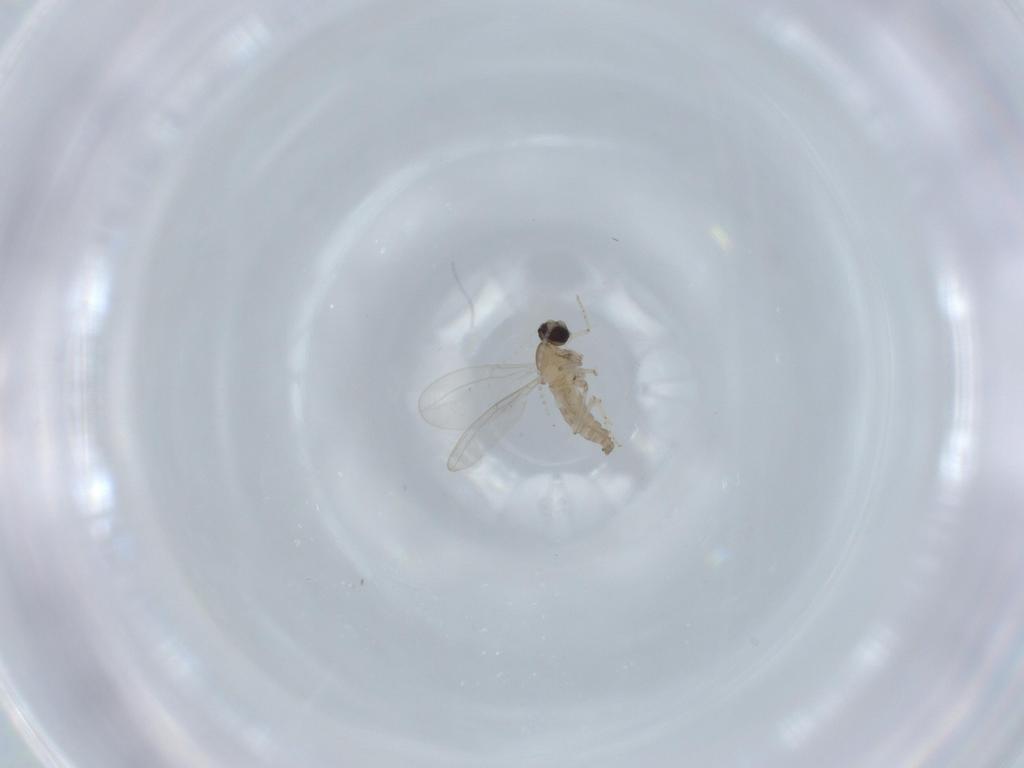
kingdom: Animalia
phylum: Arthropoda
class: Insecta
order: Diptera
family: Cecidomyiidae
